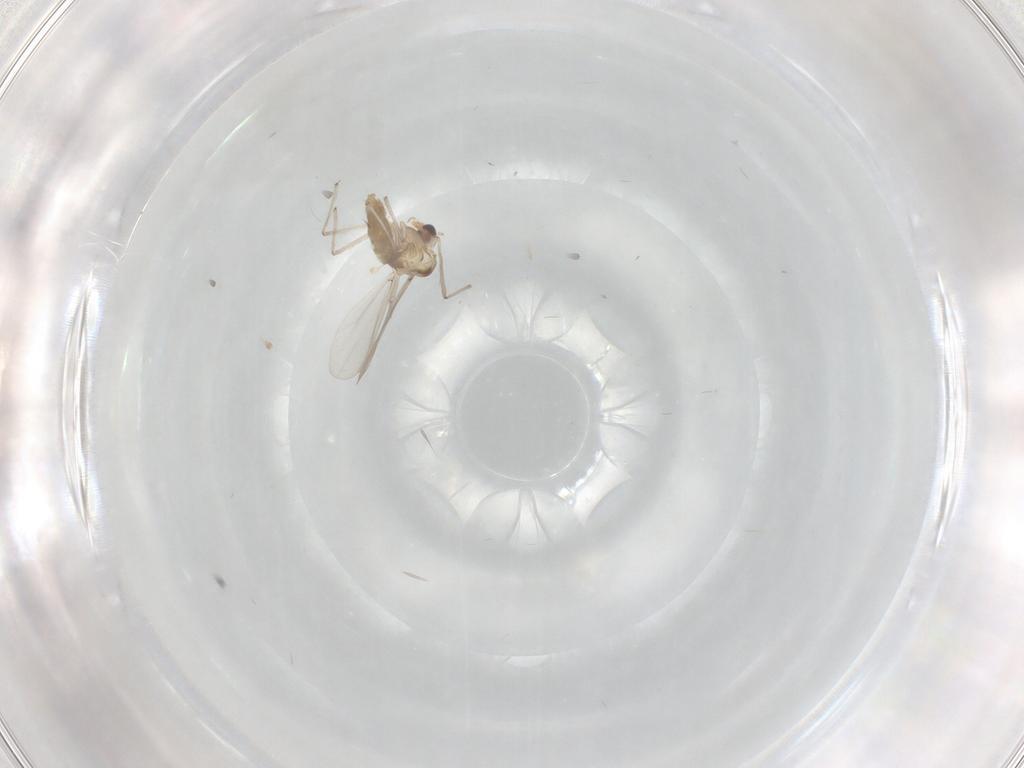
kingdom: Animalia
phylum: Arthropoda
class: Insecta
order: Diptera
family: Chironomidae
